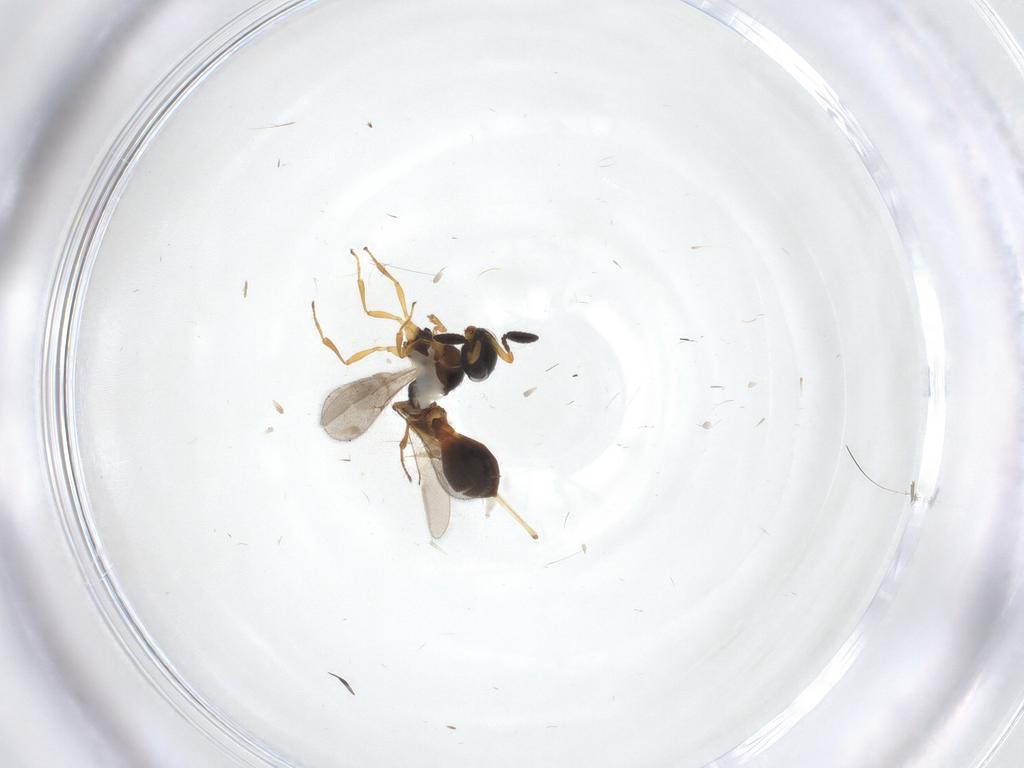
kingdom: Animalia
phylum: Arthropoda
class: Insecta
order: Hymenoptera
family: Scelionidae
